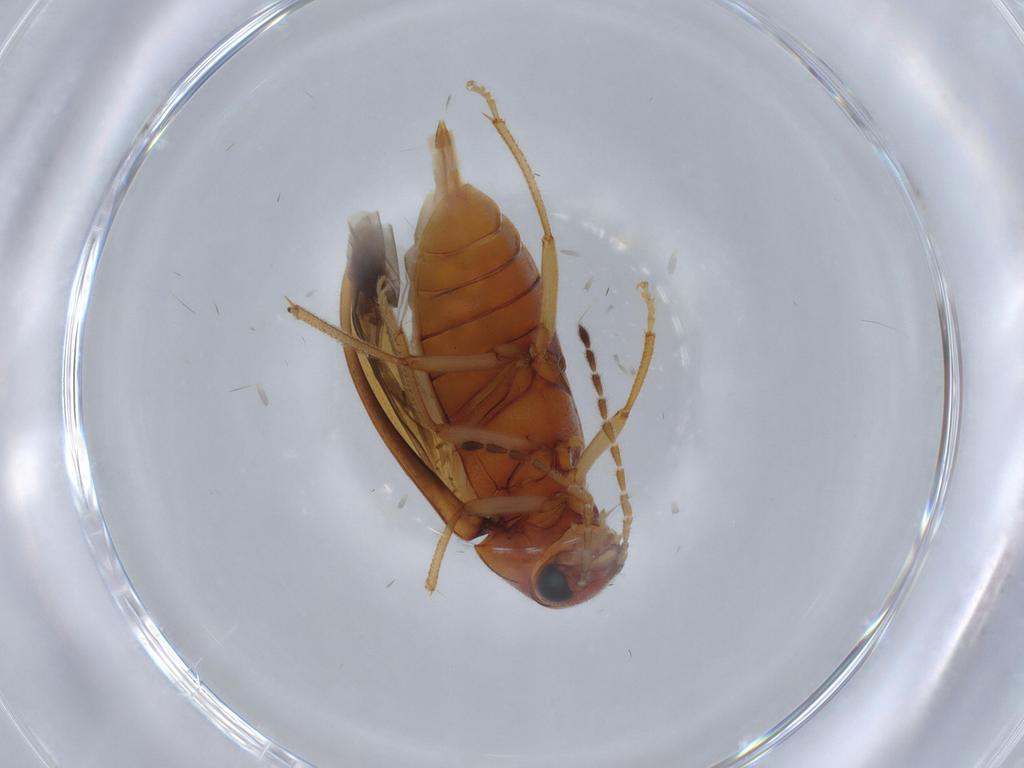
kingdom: Animalia
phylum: Arthropoda
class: Insecta
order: Coleoptera
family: Ptilodactylidae
